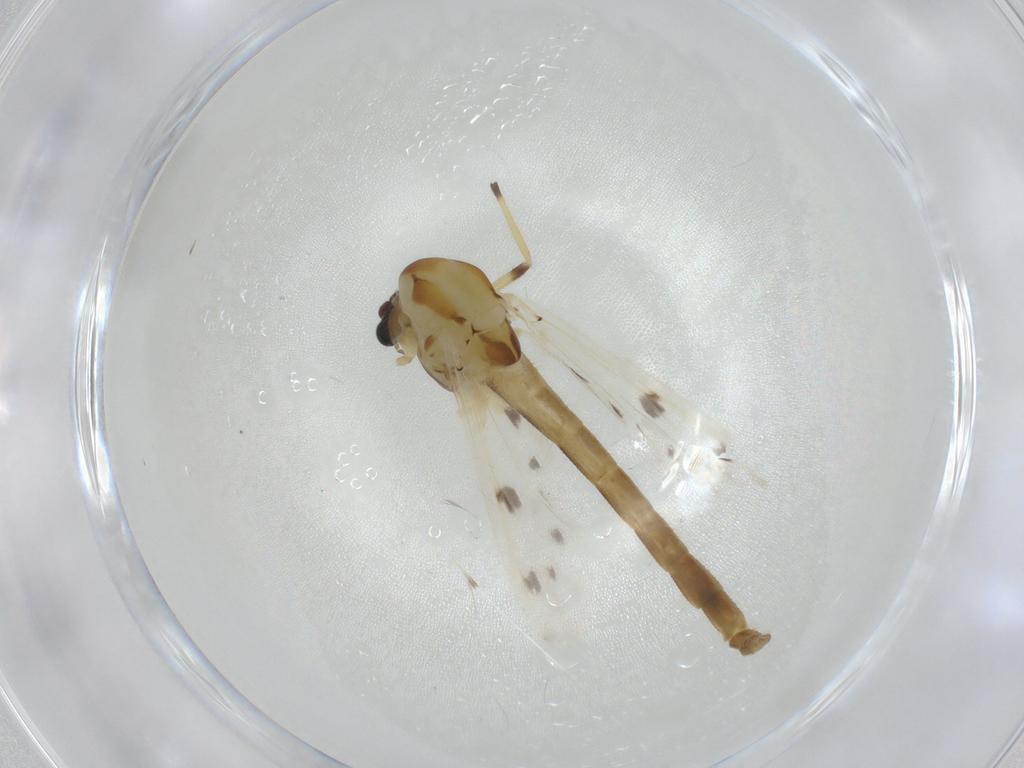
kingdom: Animalia
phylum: Arthropoda
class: Insecta
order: Diptera
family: Chironomidae
